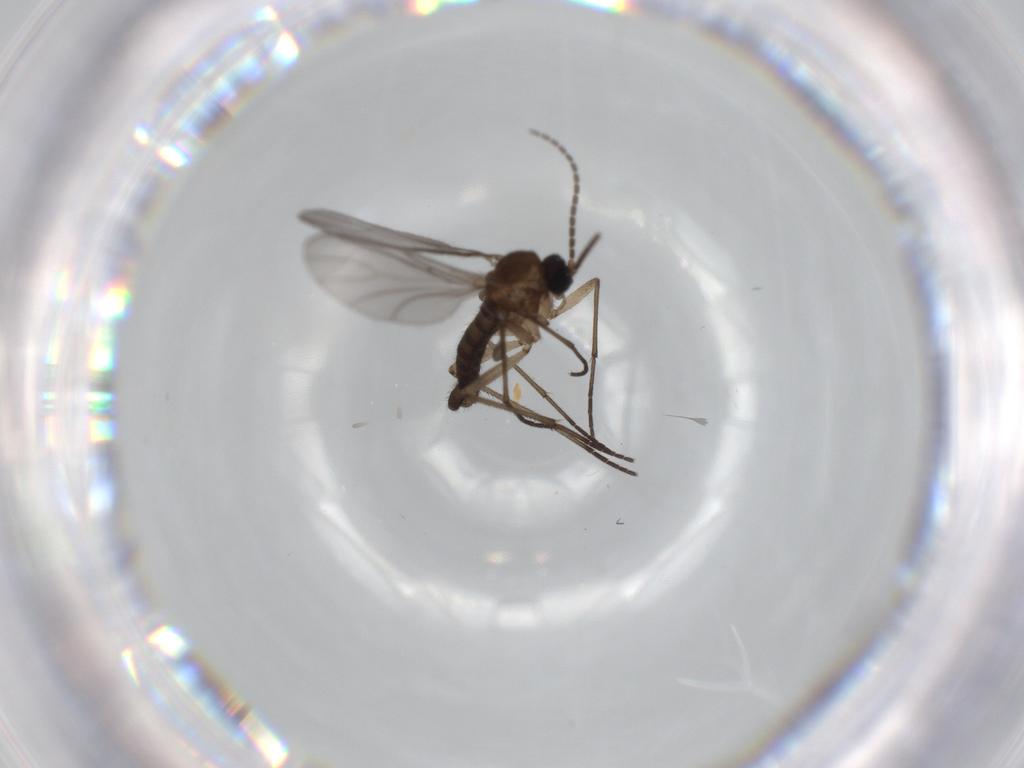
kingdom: Animalia
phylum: Arthropoda
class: Insecta
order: Diptera
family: Sciaridae
